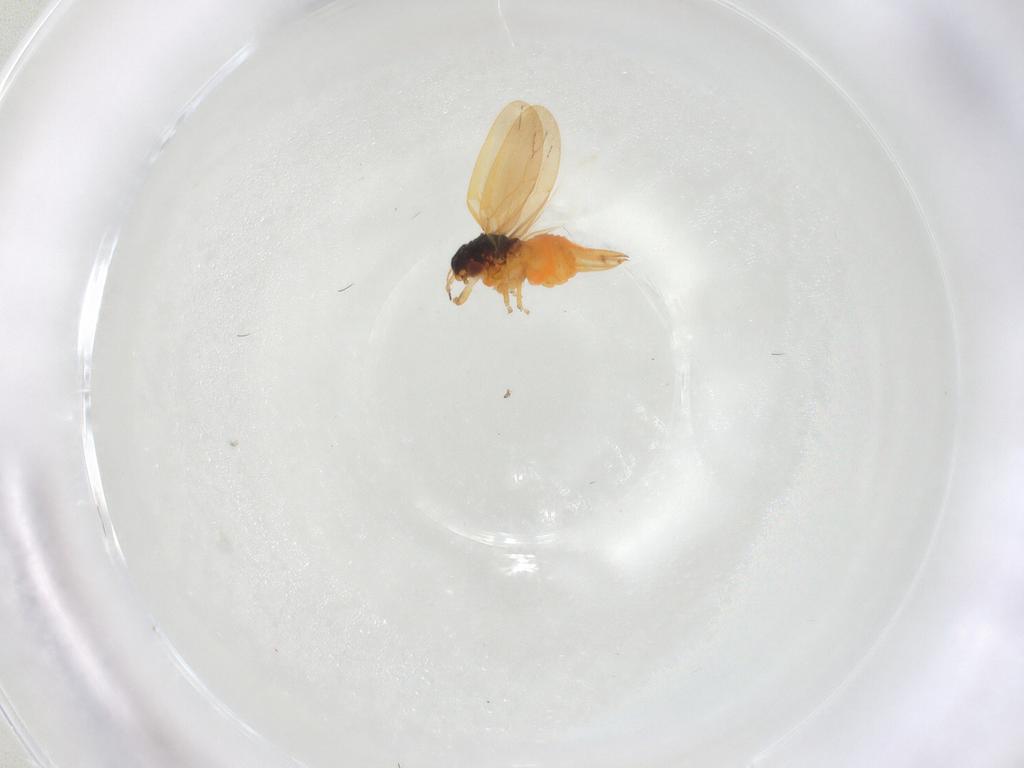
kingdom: Animalia
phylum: Arthropoda
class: Insecta
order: Hemiptera
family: Psylloidea_incertae_sedis
